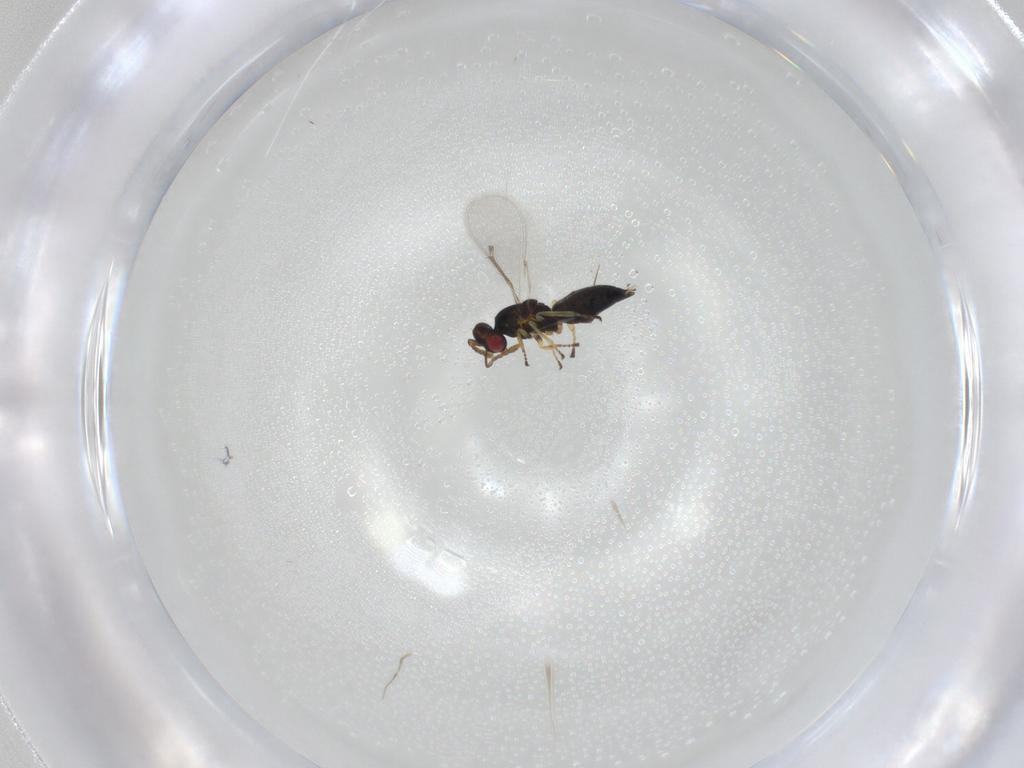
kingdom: Animalia
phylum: Arthropoda
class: Insecta
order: Hymenoptera
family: Eulophidae
